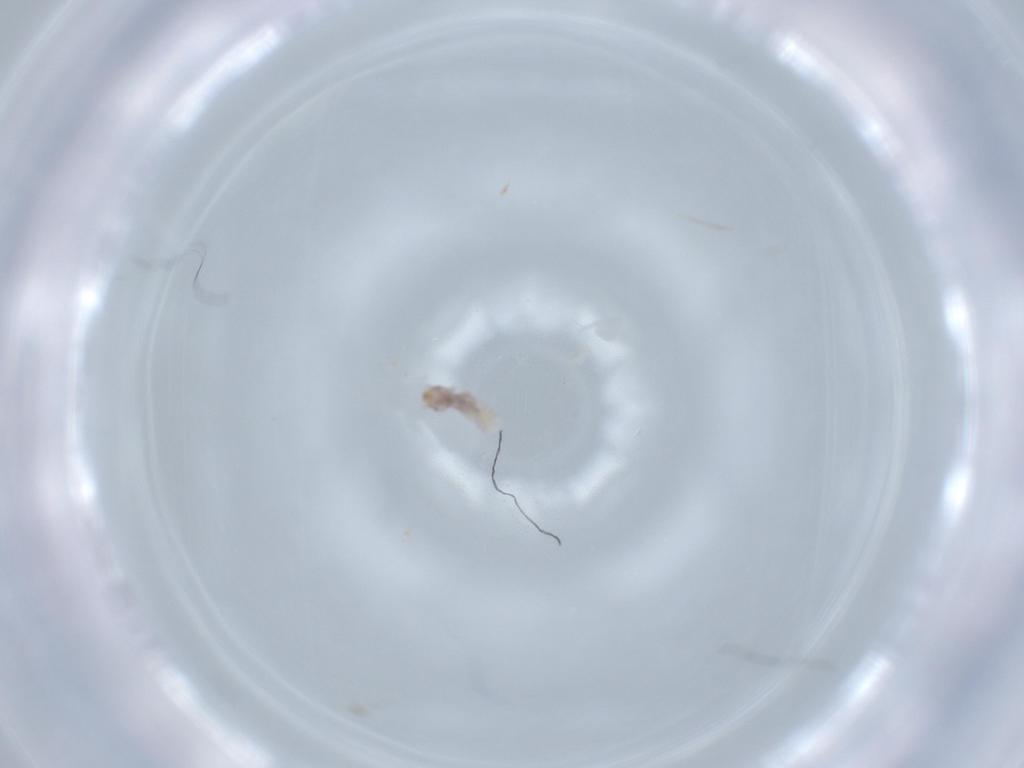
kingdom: Animalia
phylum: Arthropoda
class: Insecta
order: Psocodea
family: Liposcelididae
